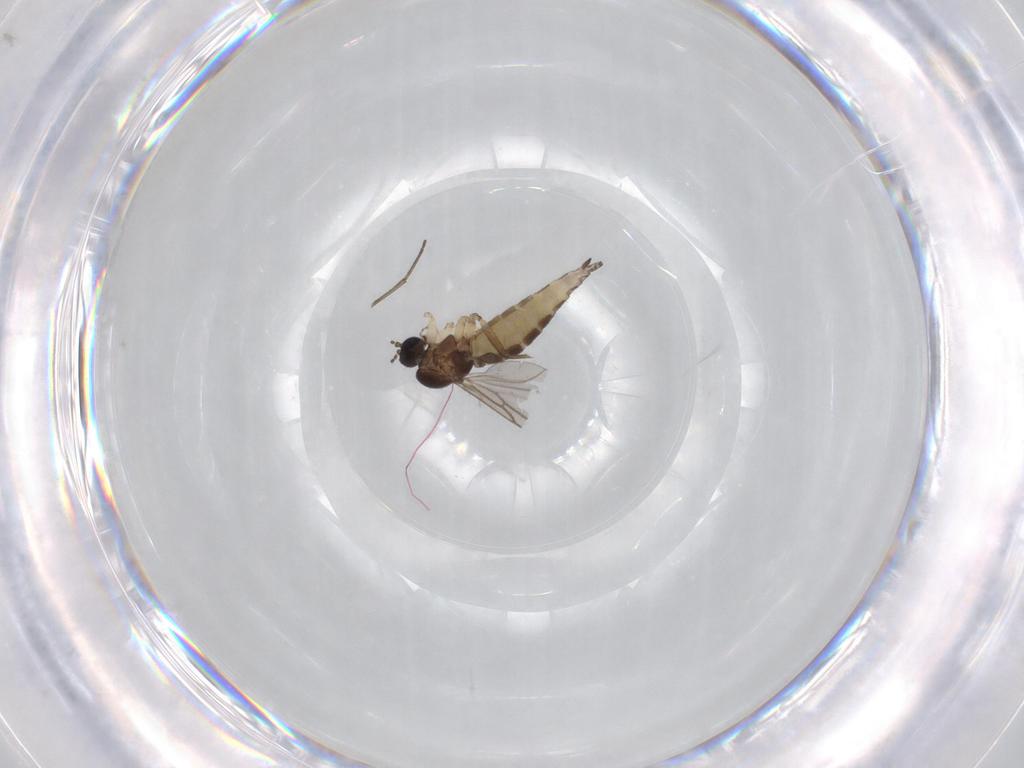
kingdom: Animalia
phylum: Arthropoda
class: Insecta
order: Diptera
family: Sciaridae
